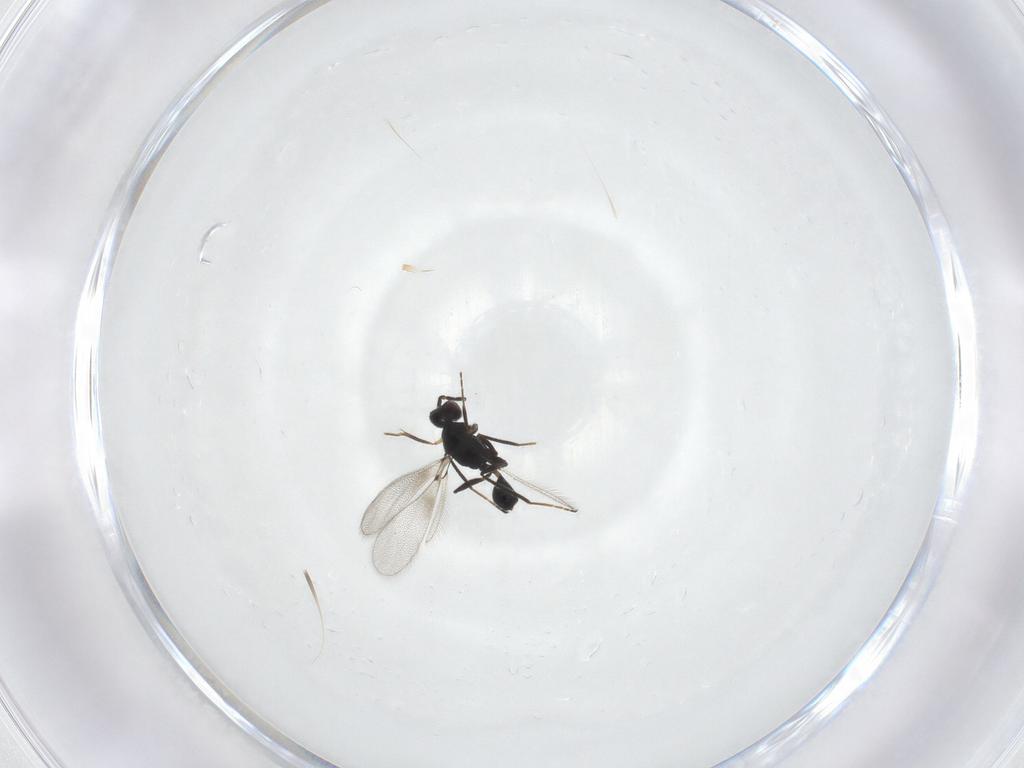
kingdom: Animalia
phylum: Arthropoda
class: Insecta
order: Hymenoptera
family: Mymaridae
